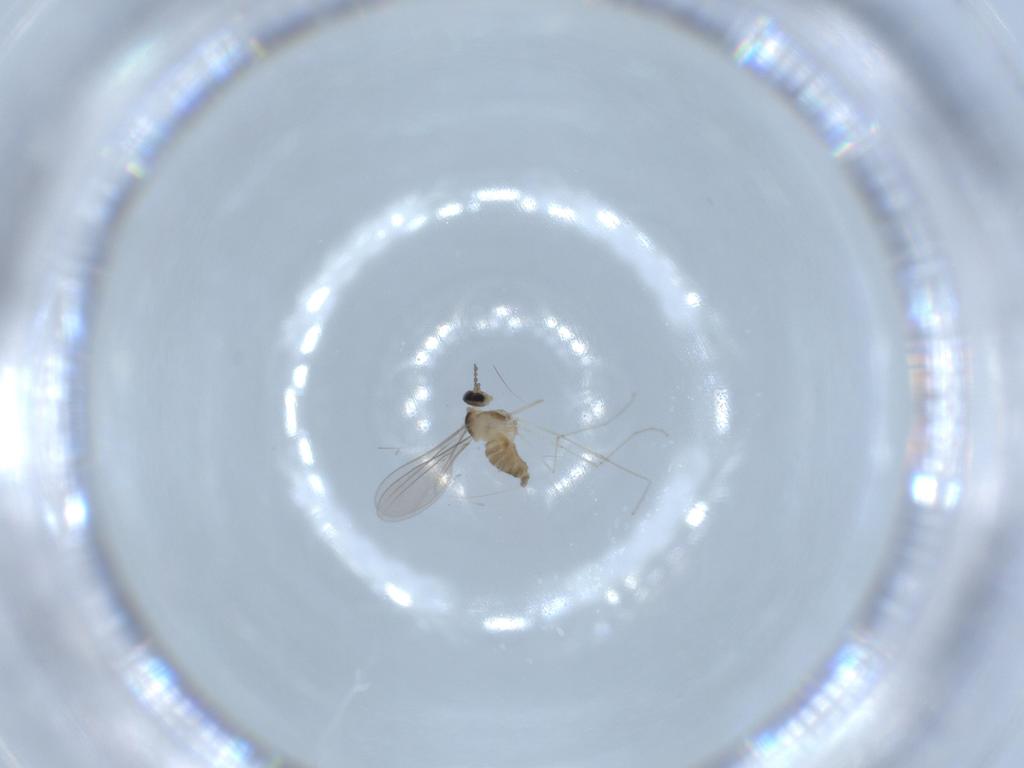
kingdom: Animalia
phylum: Arthropoda
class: Insecta
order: Diptera
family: Cecidomyiidae
